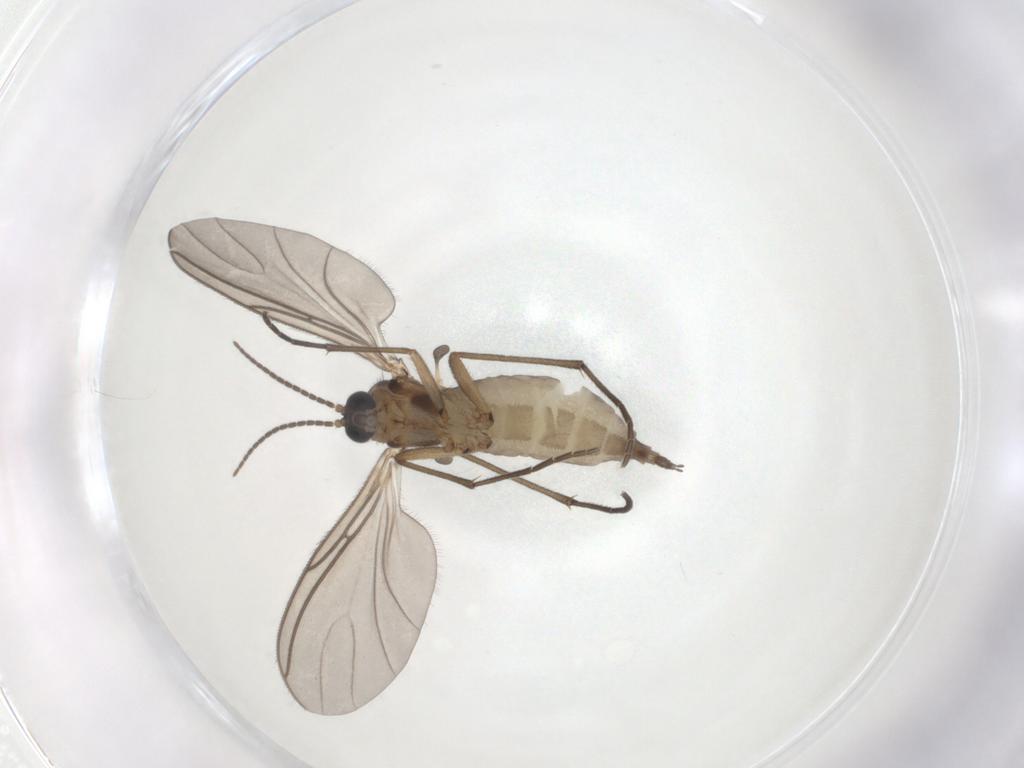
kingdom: Animalia
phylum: Arthropoda
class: Insecta
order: Diptera
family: Sciaridae
